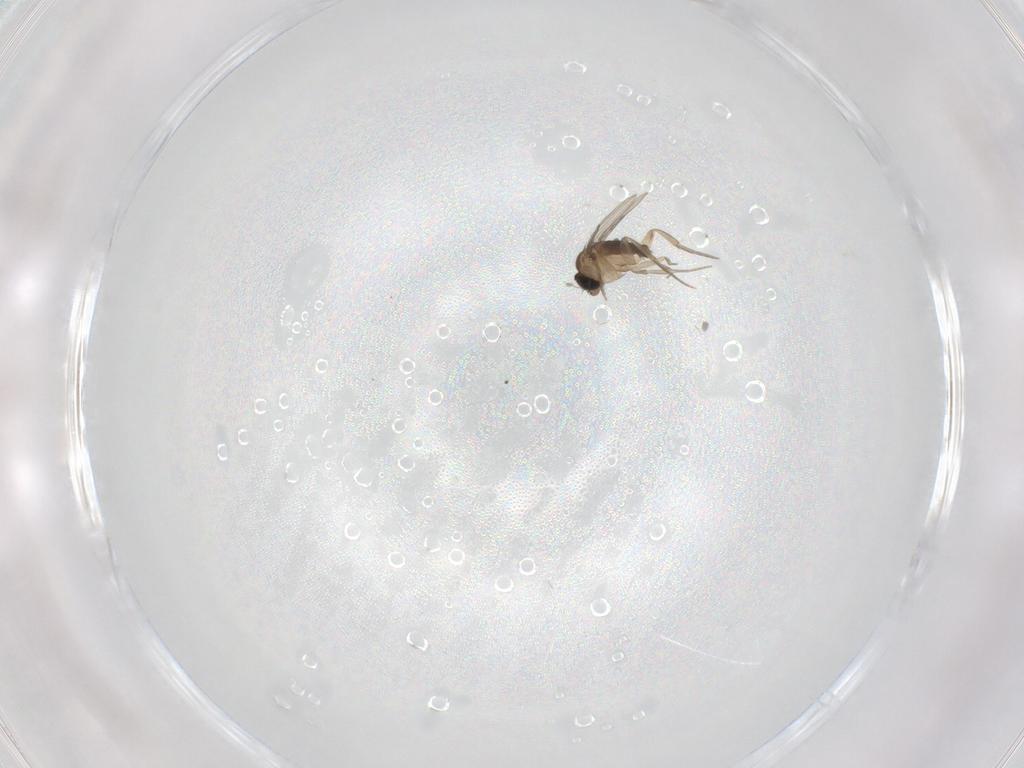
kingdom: Animalia
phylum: Arthropoda
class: Insecta
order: Diptera
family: Phoridae
